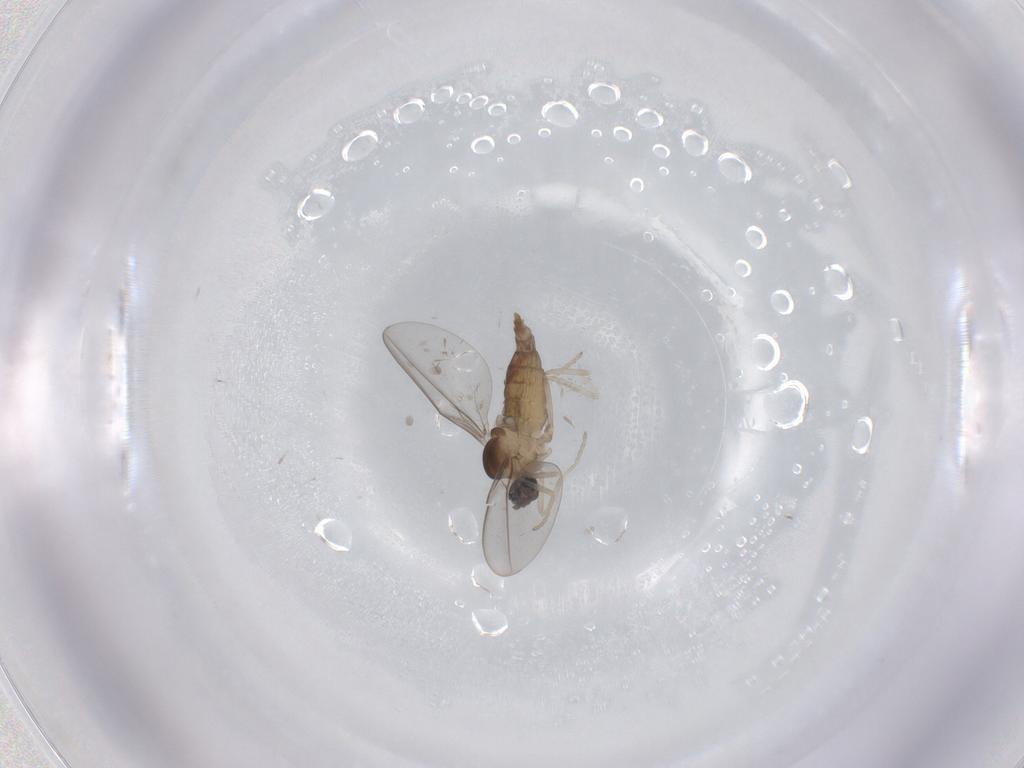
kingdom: Animalia
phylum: Arthropoda
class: Insecta
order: Diptera
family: Cecidomyiidae
